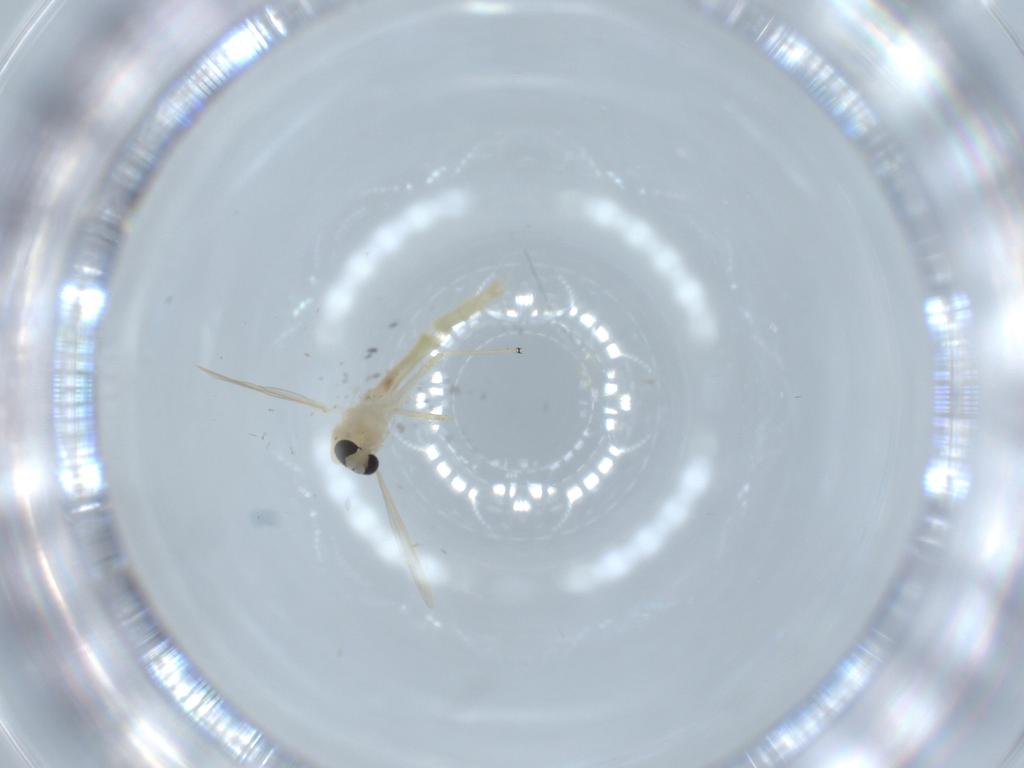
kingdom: Animalia
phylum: Arthropoda
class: Insecta
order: Diptera
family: Chironomidae
